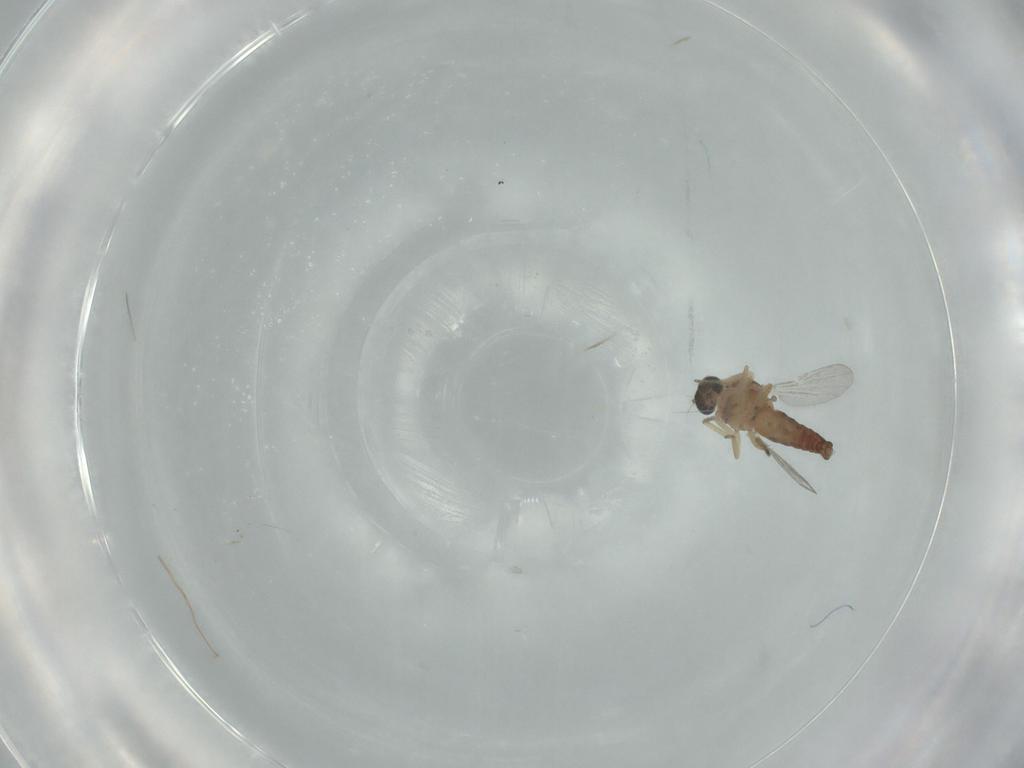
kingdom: Animalia
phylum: Arthropoda
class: Insecta
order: Diptera
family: Ceratopogonidae
